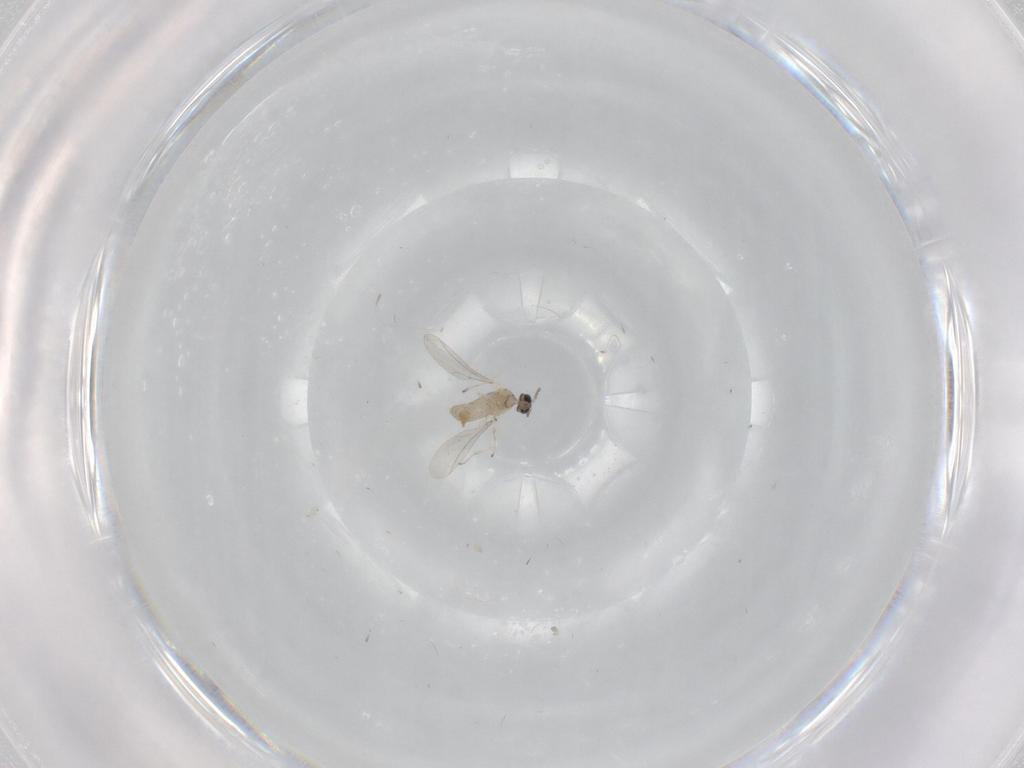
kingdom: Animalia
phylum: Arthropoda
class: Insecta
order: Diptera
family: Cecidomyiidae
